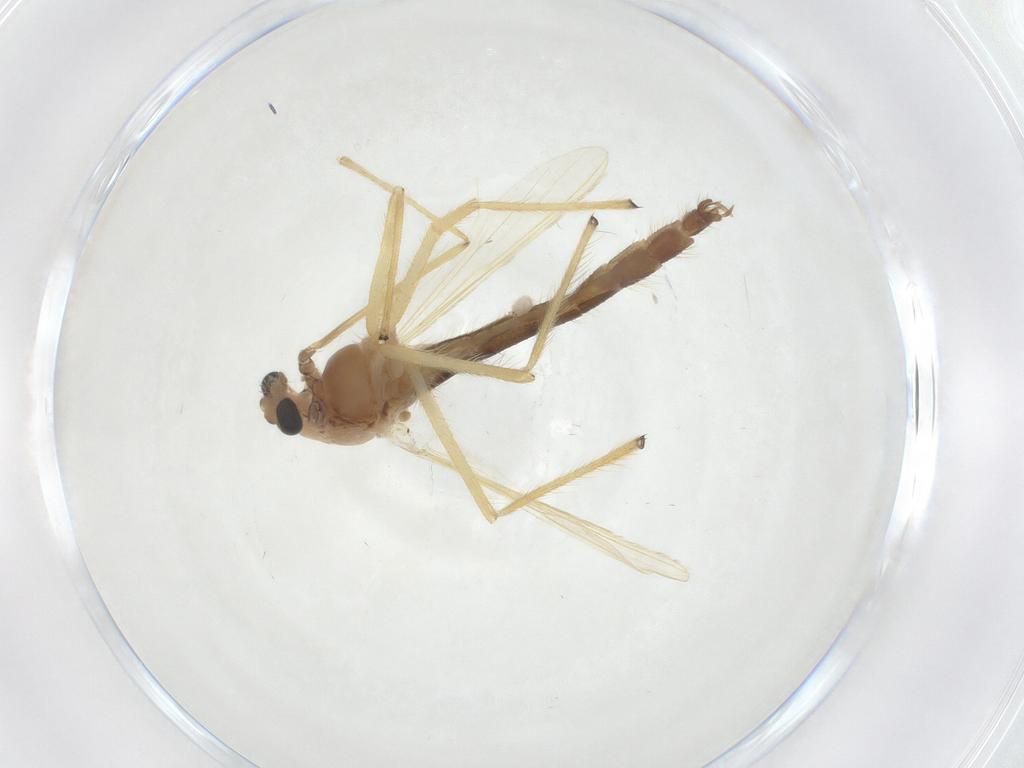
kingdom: Animalia
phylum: Arthropoda
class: Insecta
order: Diptera
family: Chironomidae
